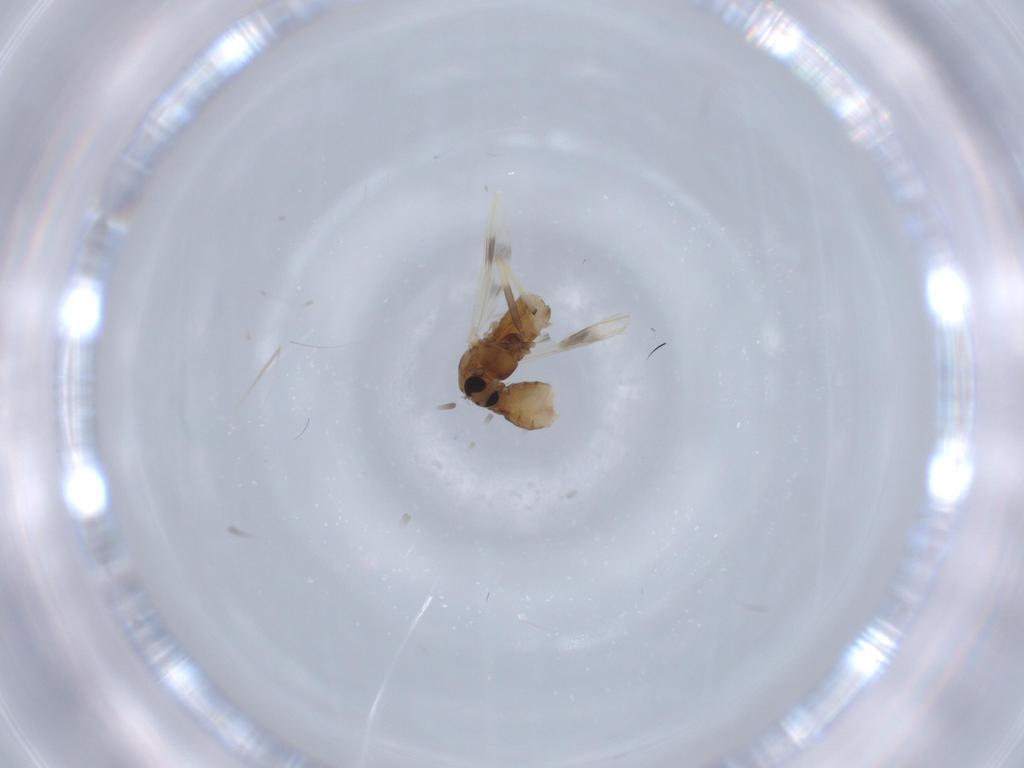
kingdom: Animalia
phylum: Arthropoda
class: Insecta
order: Diptera
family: Chironomidae
